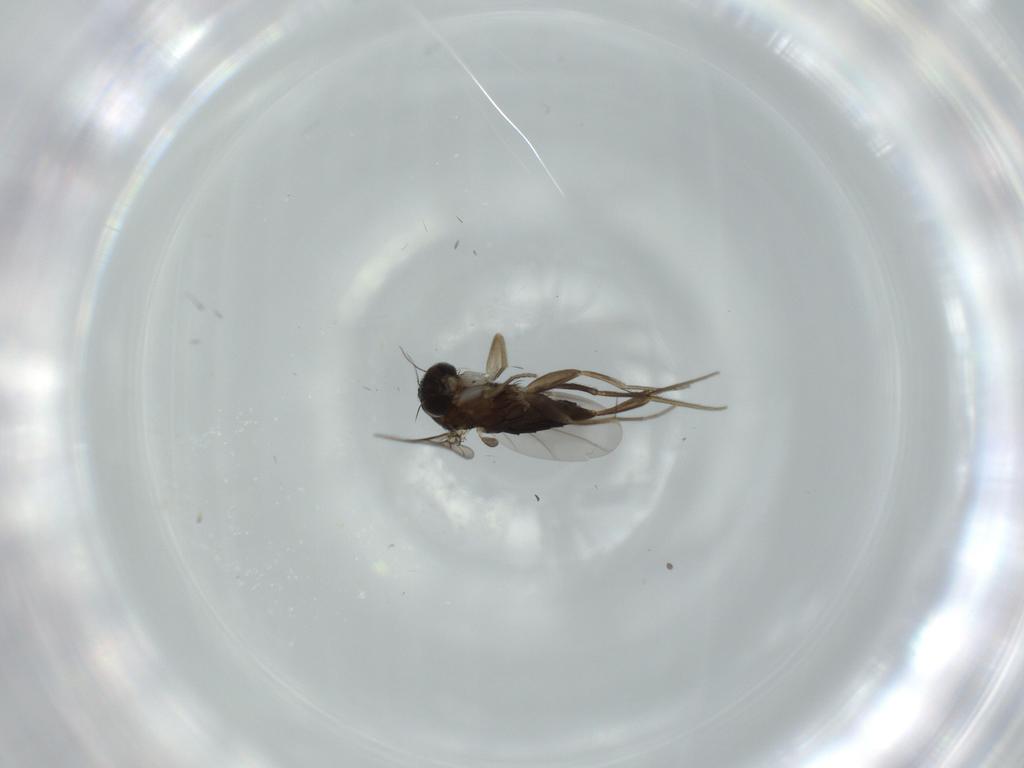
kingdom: Animalia
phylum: Arthropoda
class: Insecta
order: Diptera
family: Phoridae
